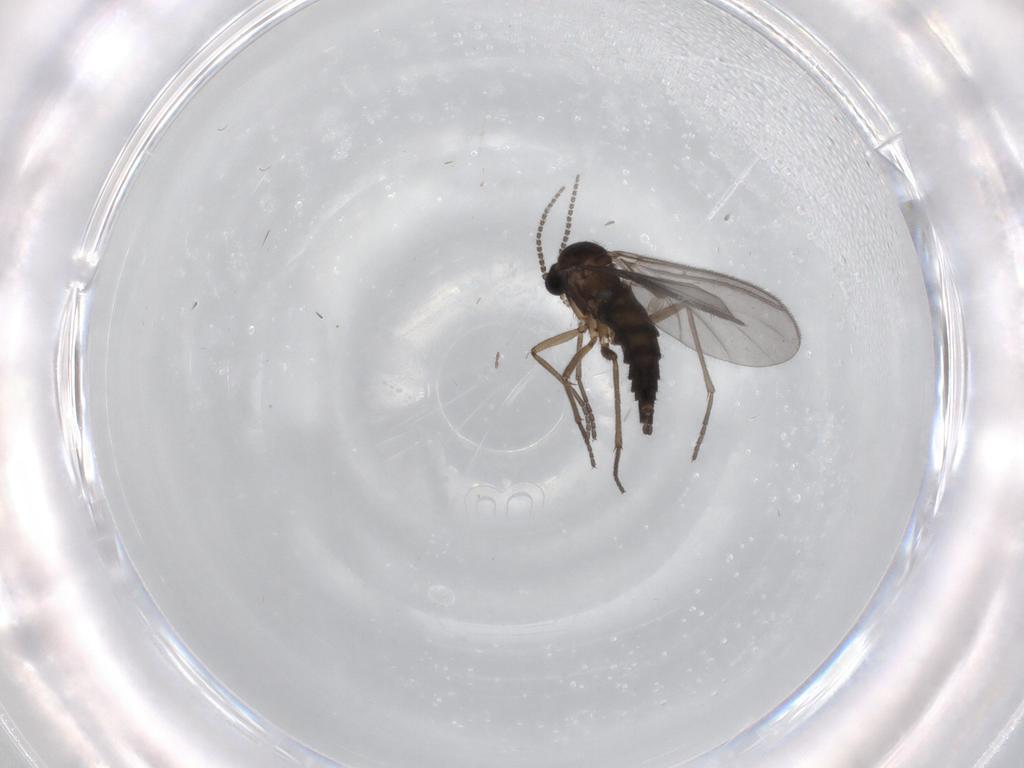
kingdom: Animalia
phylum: Arthropoda
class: Insecta
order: Diptera
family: Sciaridae
